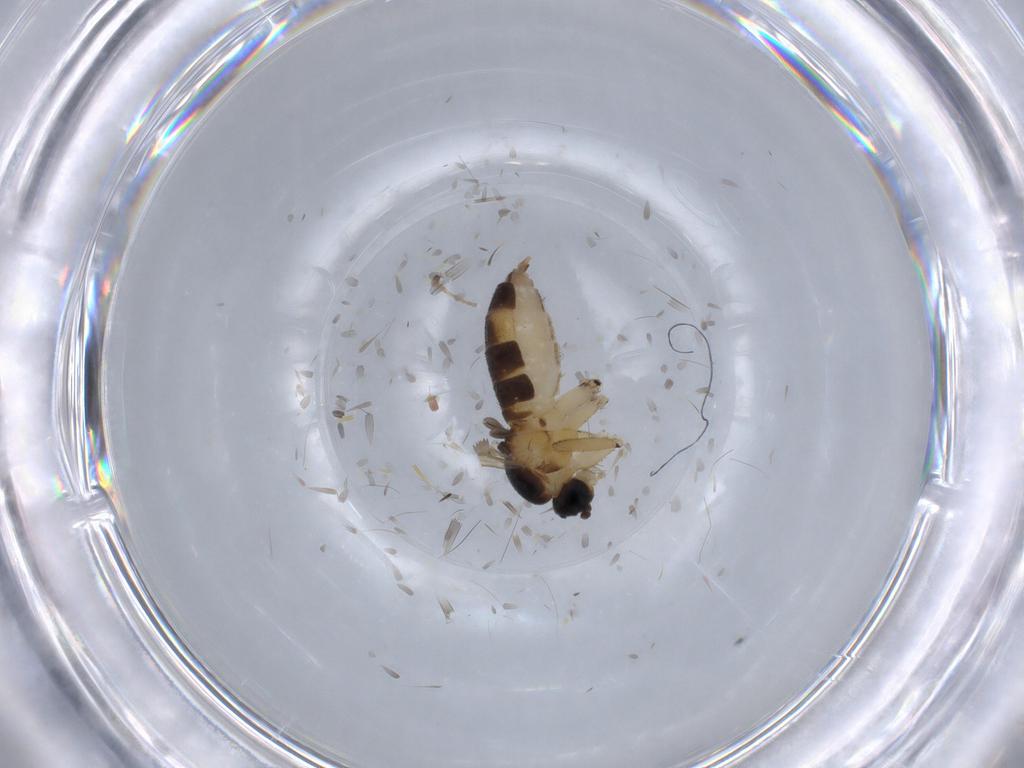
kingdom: Animalia
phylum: Arthropoda
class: Insecta
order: Diptera
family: Sciaridae
